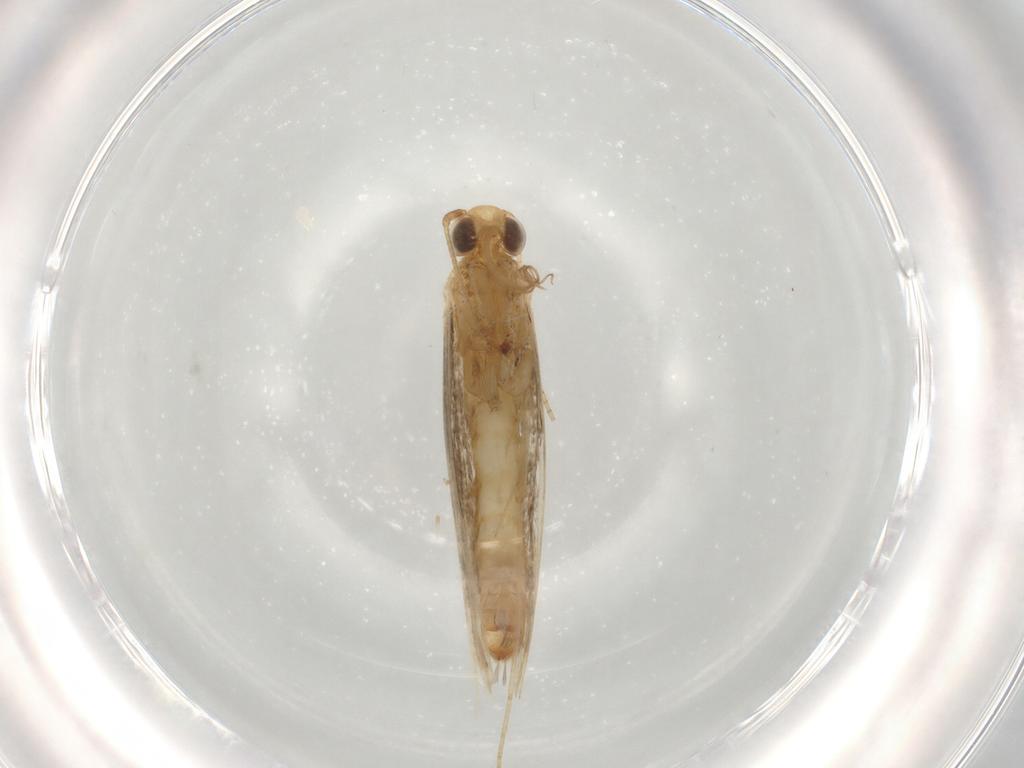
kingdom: Animalia
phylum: Arthropoda
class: Insecta
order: Lepidoptera
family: Gracillariidae
